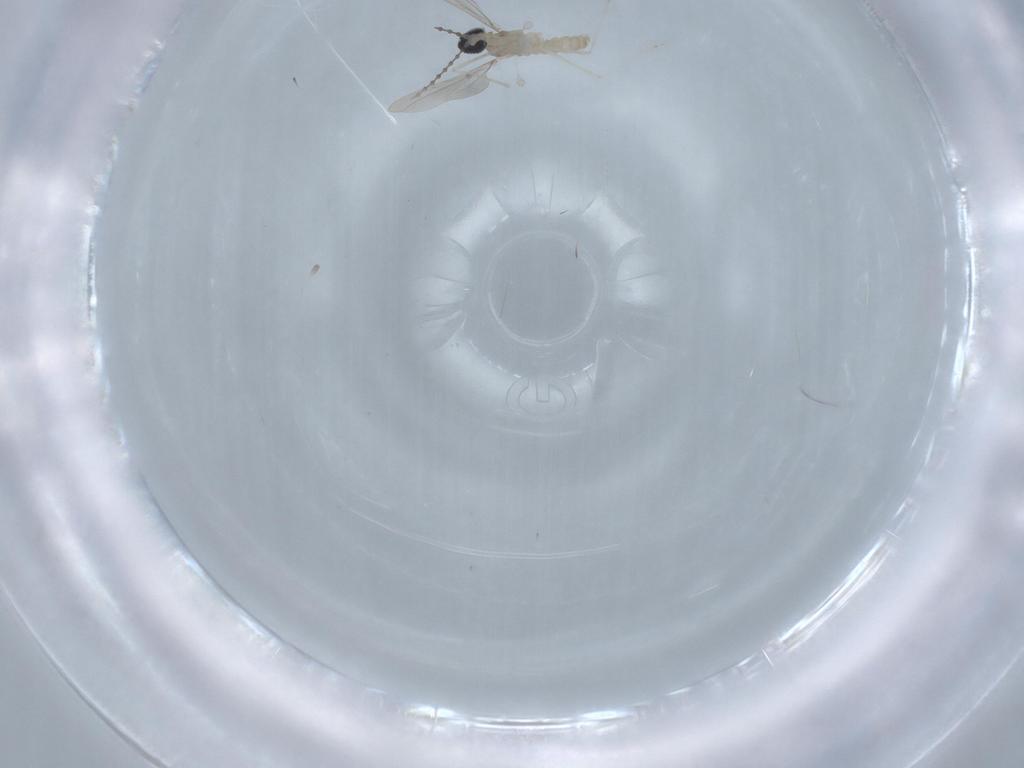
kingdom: Animalia
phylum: Arthropoda
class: Insecta
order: Diptera
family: Cecidomyiidae
